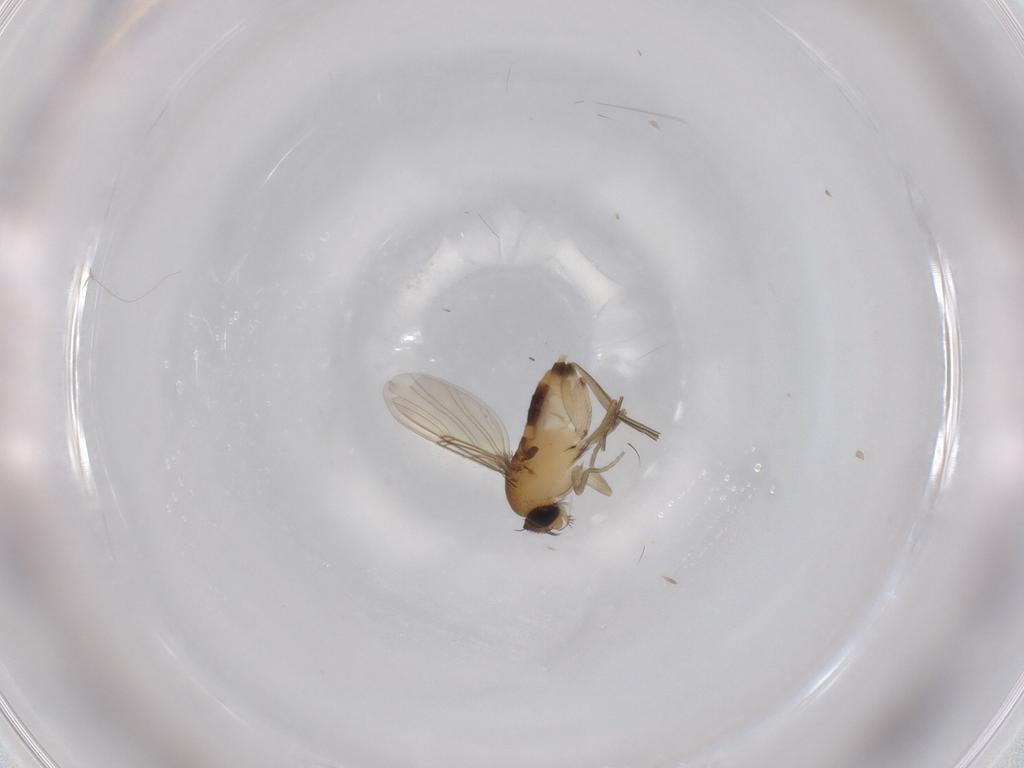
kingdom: Animalia
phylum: Arthropoda
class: Insecta
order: Diptera
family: Phoridae
